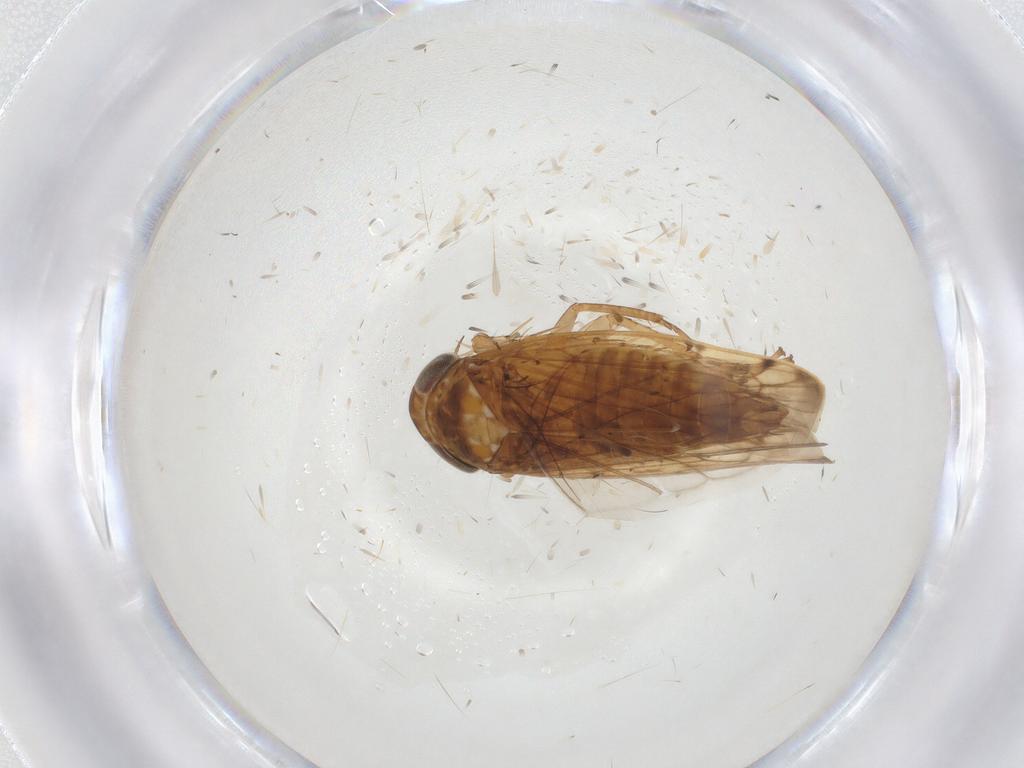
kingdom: Animalia
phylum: Arthropoda
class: Insecta
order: Hemiptera
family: Cicadellidae
